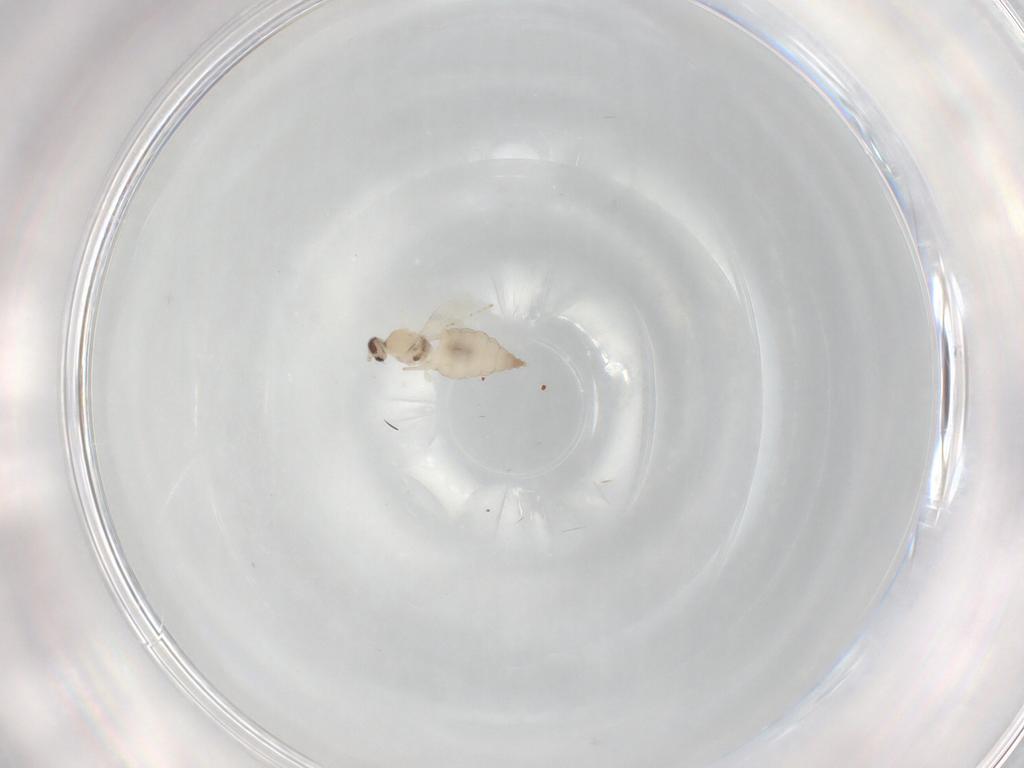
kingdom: Animalia
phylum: Arthropoda
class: Insecta
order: Diptera
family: Cecidomyiidae
